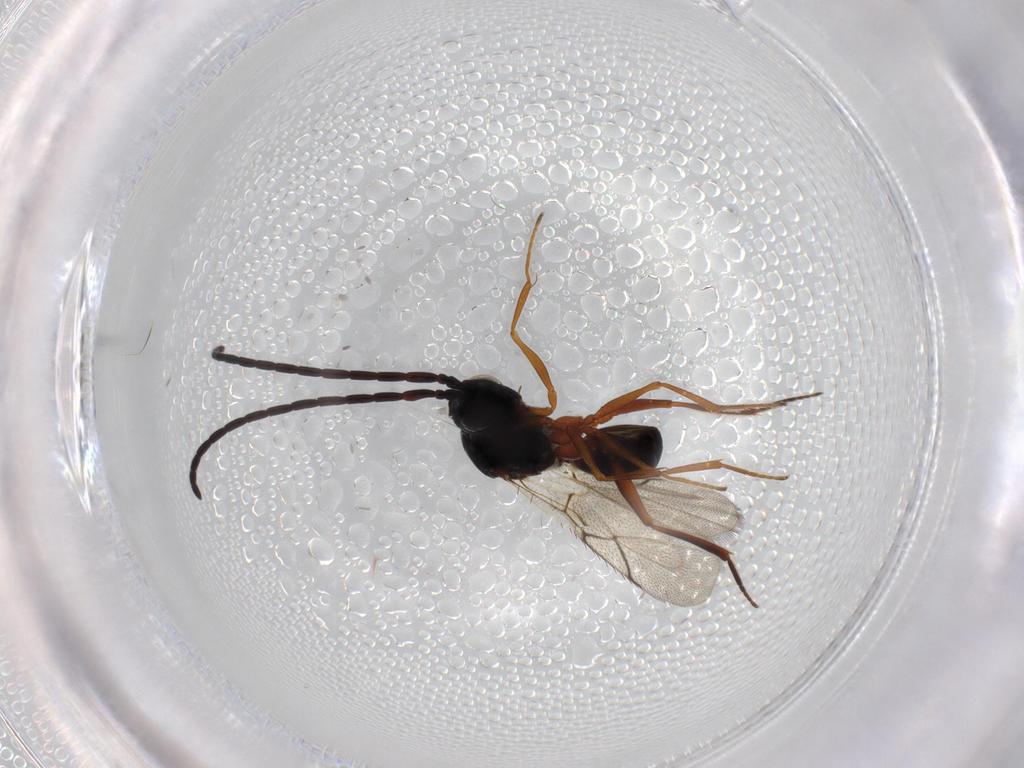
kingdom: Animalia
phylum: Arthropoda
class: Insecta
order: Hymenoptera
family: Figitidae
